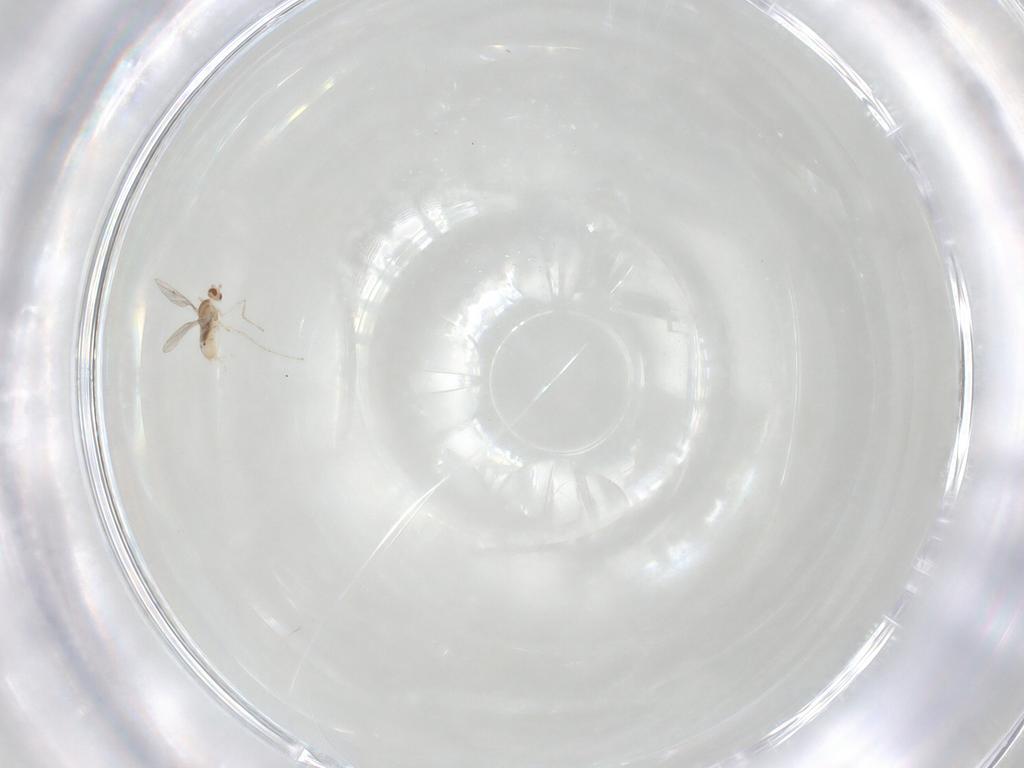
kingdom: Animalia
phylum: Arthropoda
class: Insecta
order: Diptera
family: Cecidomyiidae
